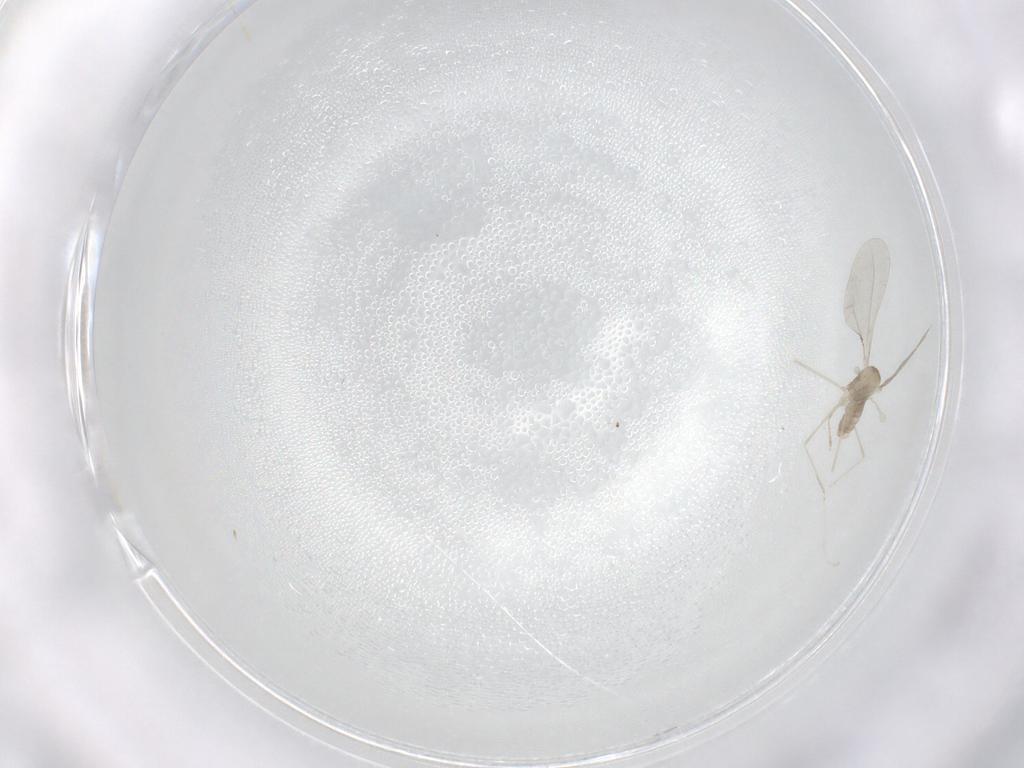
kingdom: Animalia
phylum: Arthropoda
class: Insecta
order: Diptera
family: Cecidomyiidae
